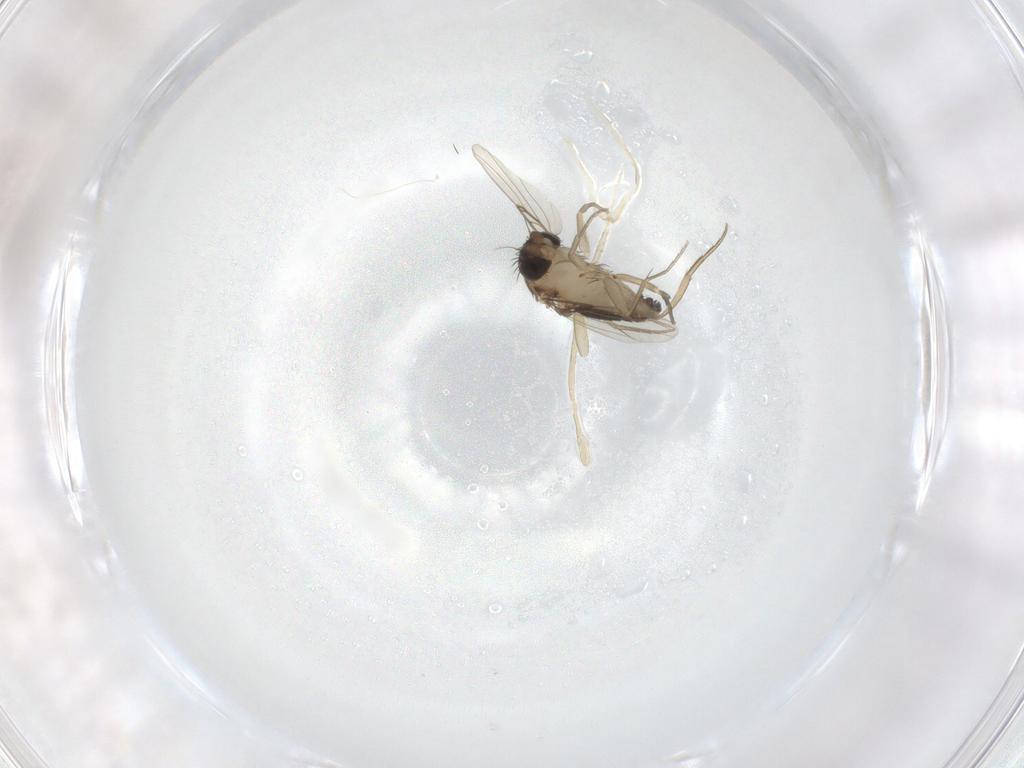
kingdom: Animalia
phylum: Arthropoda
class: Insecta
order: Diptera
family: Phoridae
